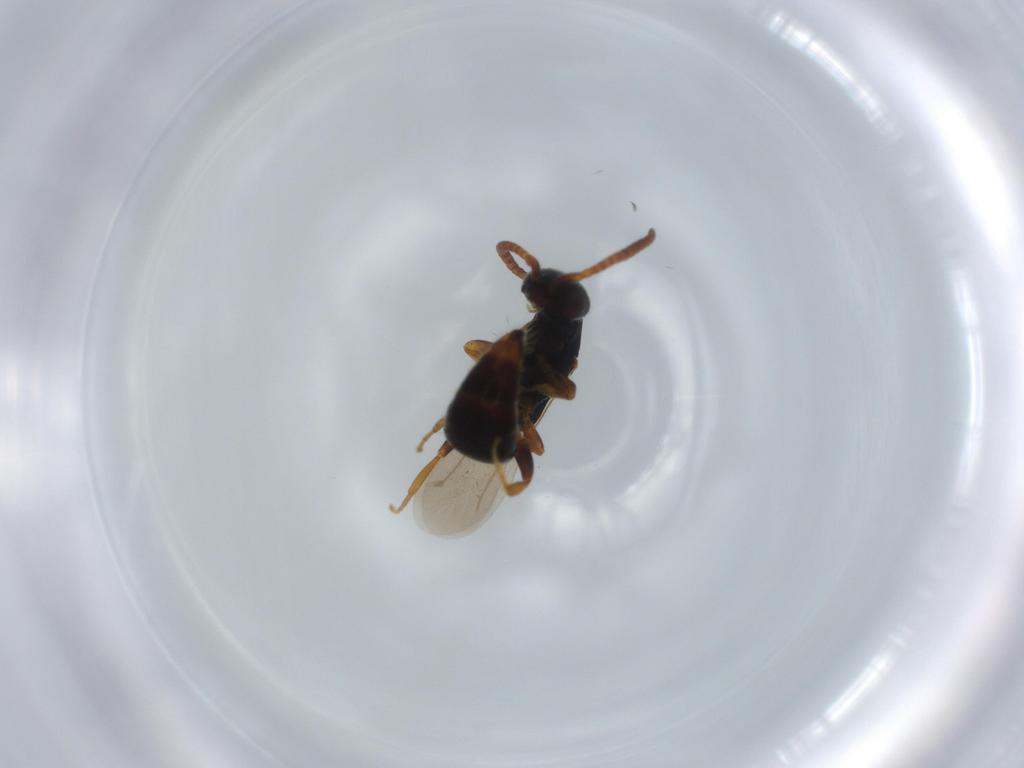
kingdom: Animalia
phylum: Arthropoda
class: Insecta
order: Hymenoptera
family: Bethylidae
